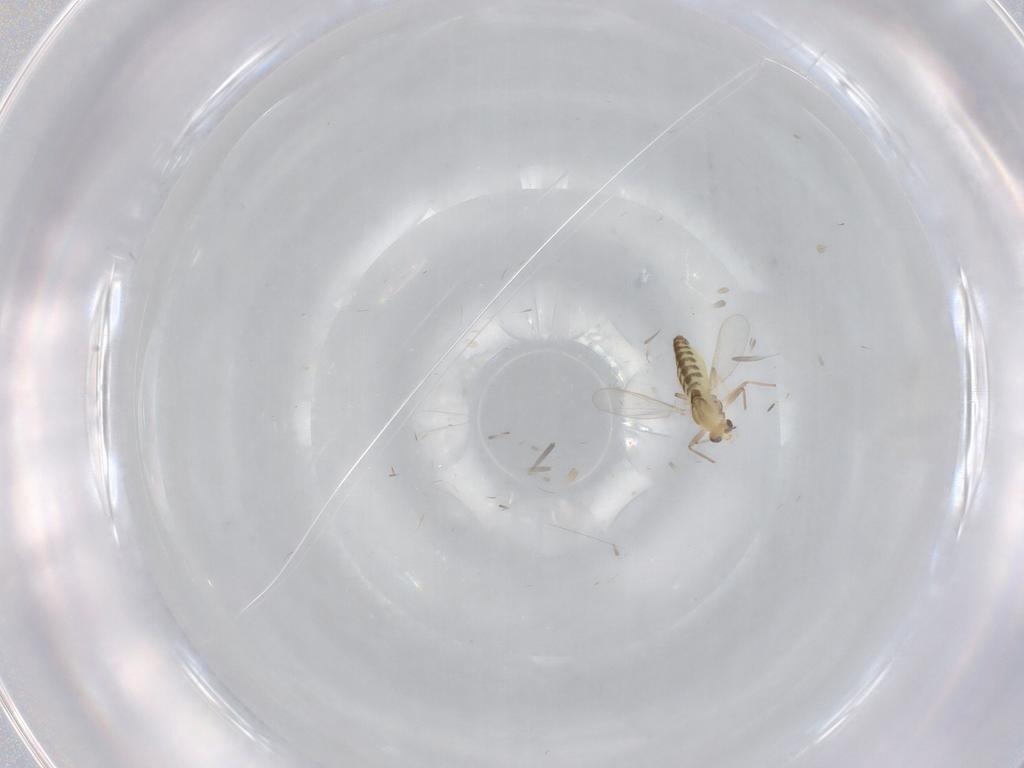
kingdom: Animalia
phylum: Arthropoda
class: Insecta
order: Diptera
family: Chironomidae
